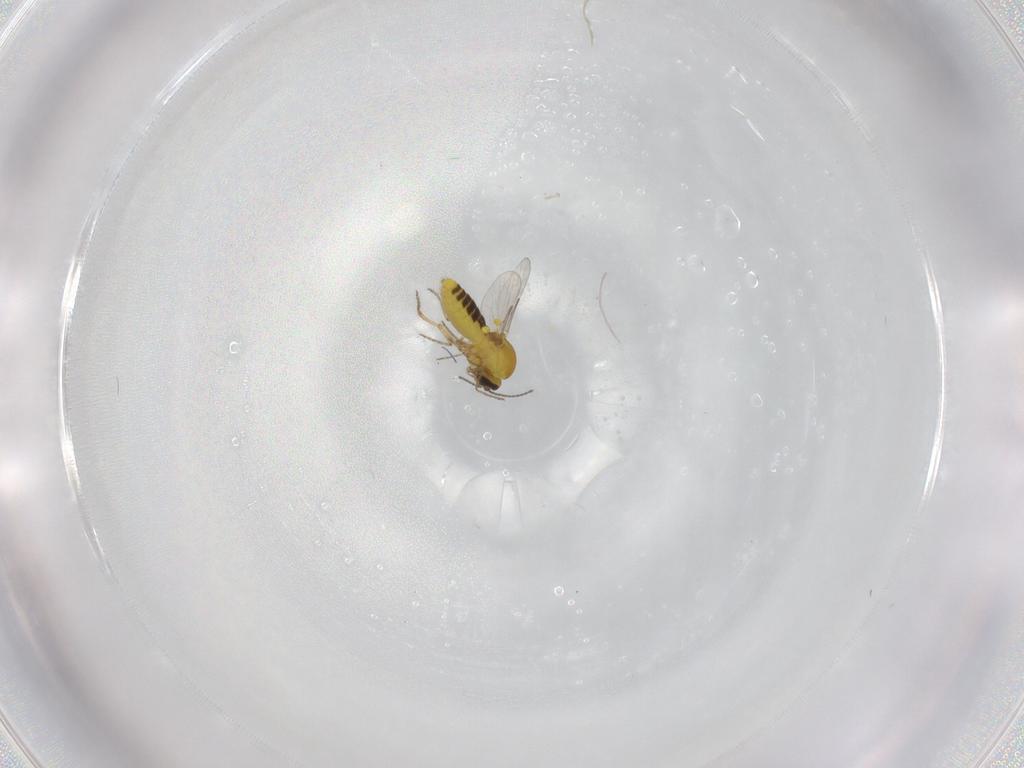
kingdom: Animalia
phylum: Arthropoda
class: Insecta
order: Diptera
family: Ceratopogonidae
